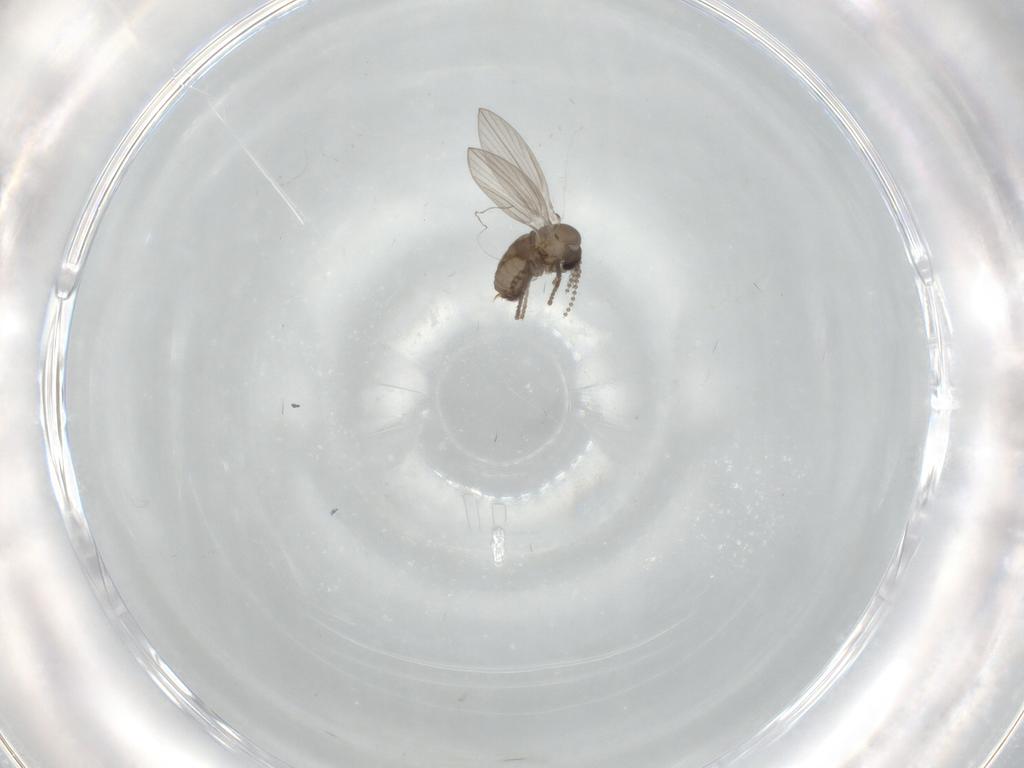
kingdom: Animalia
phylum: Arthropoda
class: Insecta
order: Diptera
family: Psychodidae
